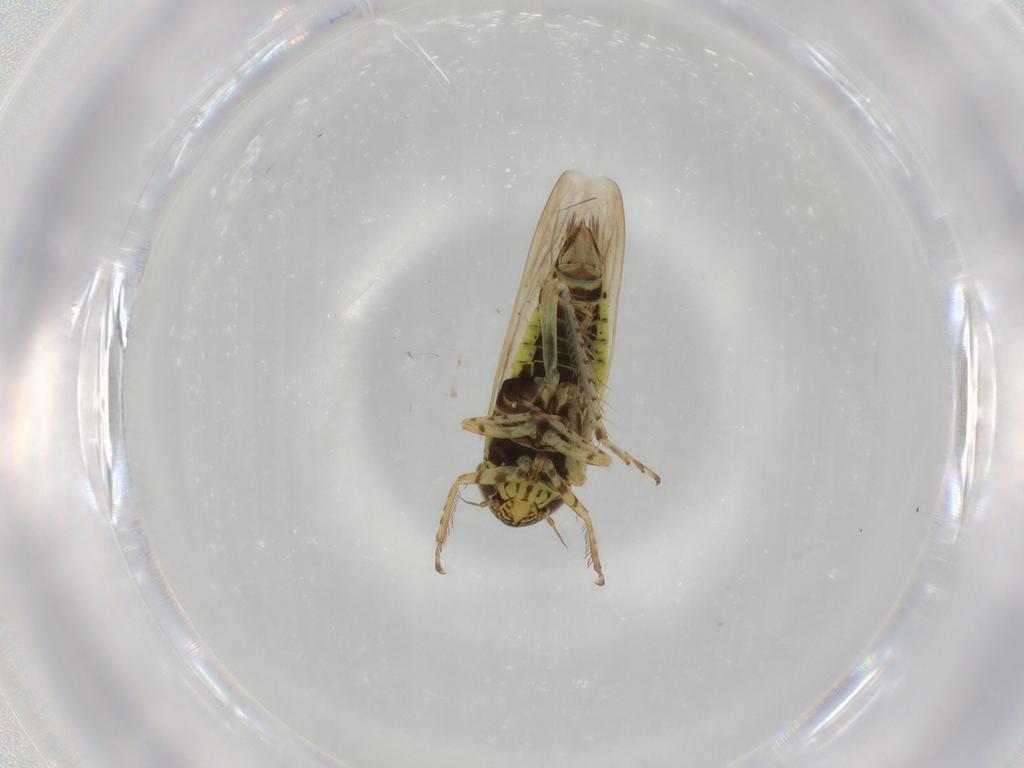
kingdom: Animalia
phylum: Arthropoda
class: Insecta
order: Hemiptera
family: Cicadellidae
